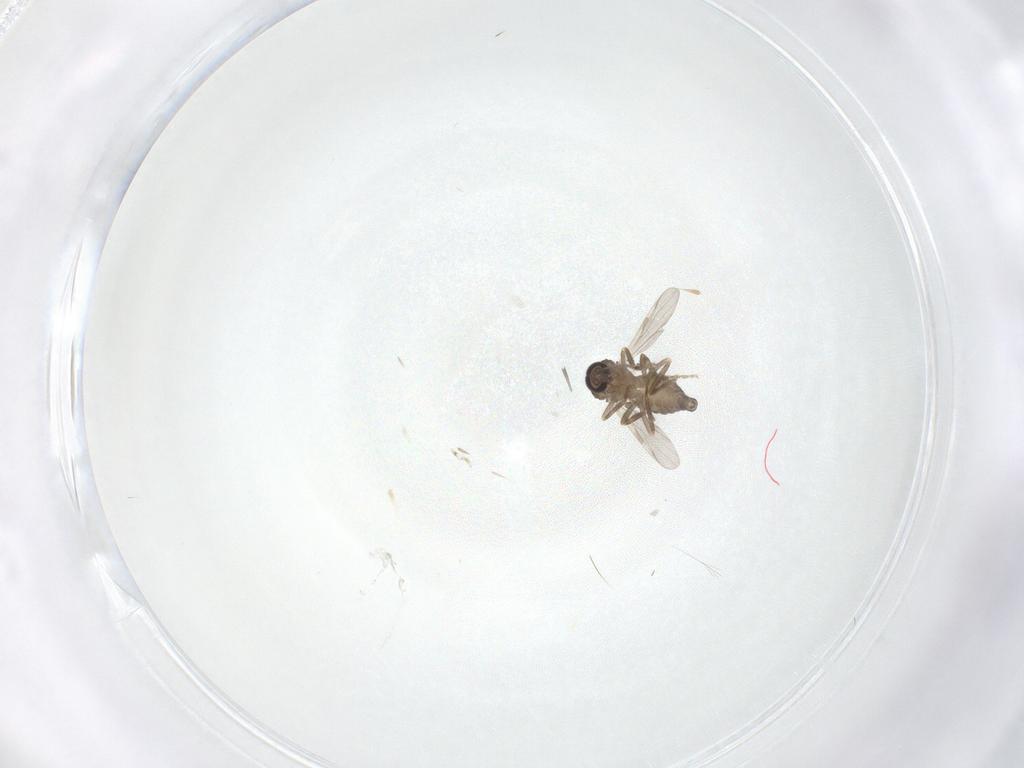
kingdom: Animalia
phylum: Arthropoda
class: Insecta
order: Diptera
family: Ceratopogonidae
